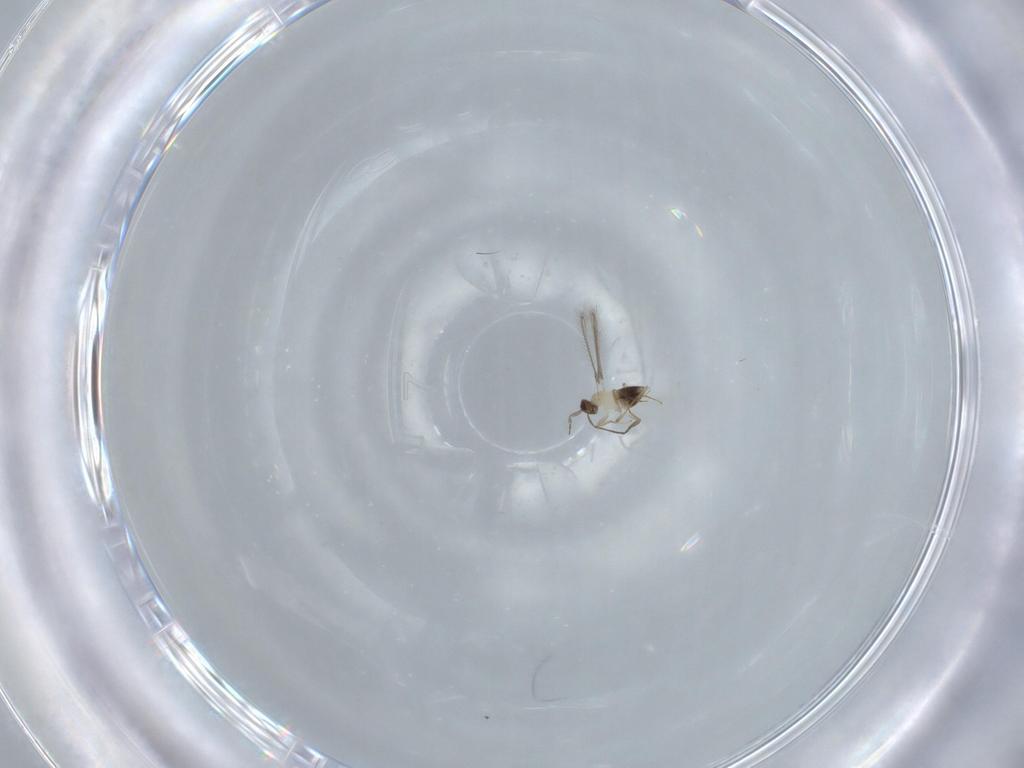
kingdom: Animalia
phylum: Arthropoda
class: Insecta
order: Hymenoptera
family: Mymaridae
